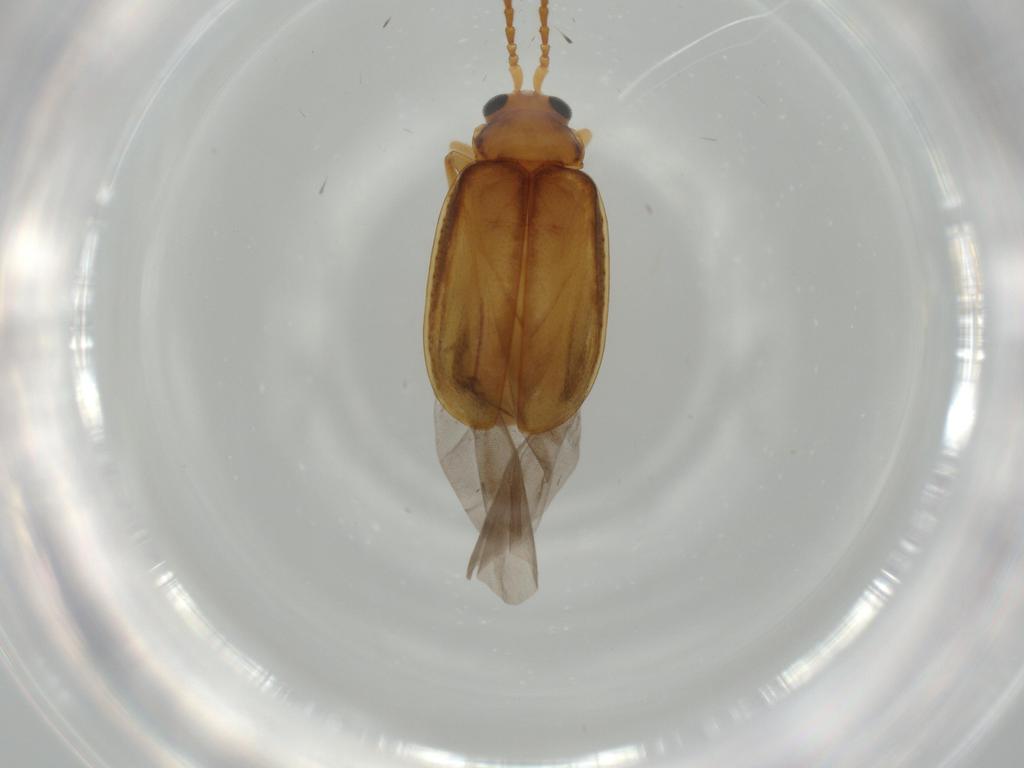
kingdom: Animalia
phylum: Arthropoda
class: Insecta
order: Coleoptera
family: Chrysomelidae
